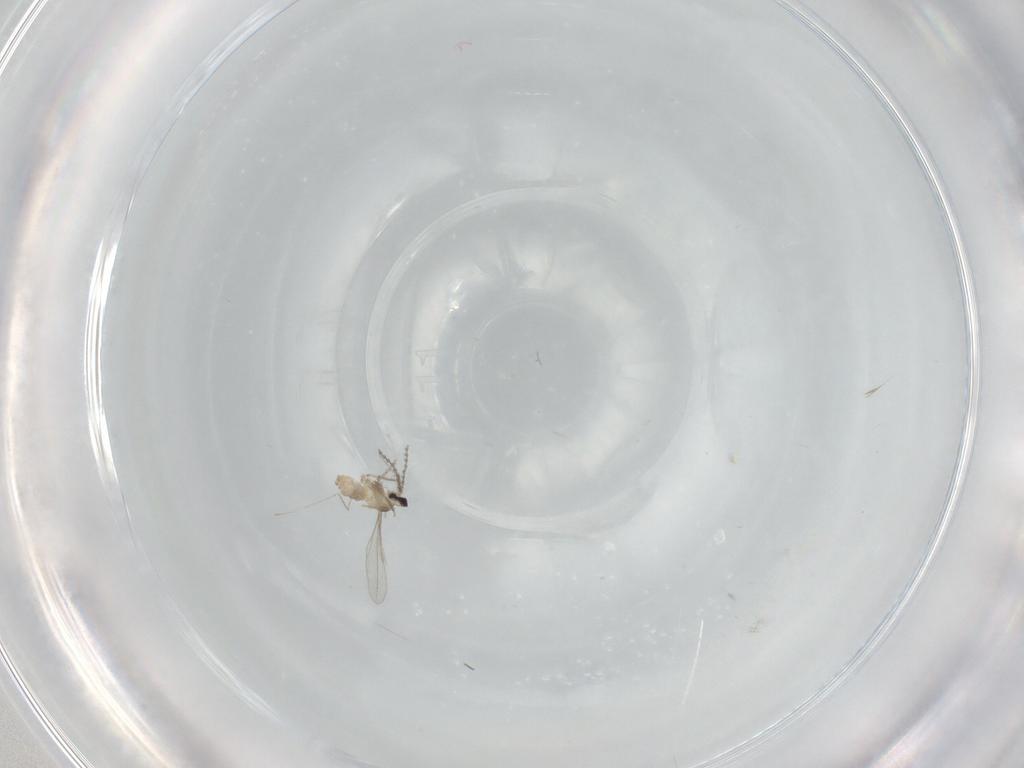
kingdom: Animalia
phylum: Arthropoda
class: Insecta
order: Diptera
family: Cecidomyiidae
